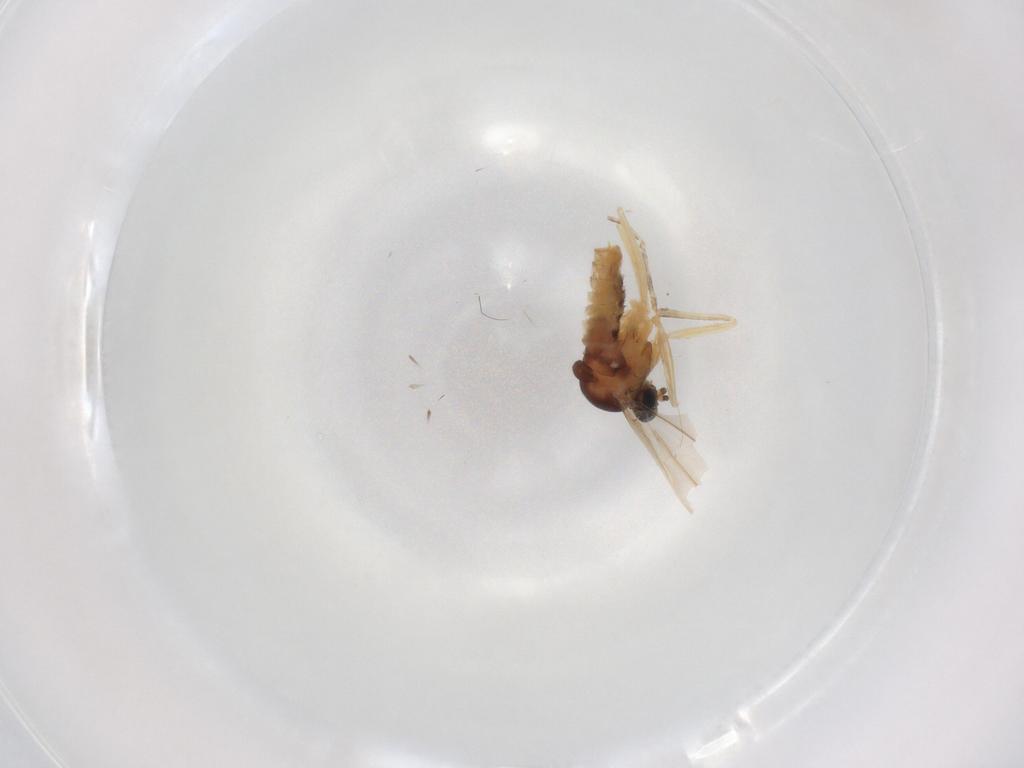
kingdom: Animalia
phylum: Arthropoda
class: Insecta
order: Diptera
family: Cecidomyiidae
